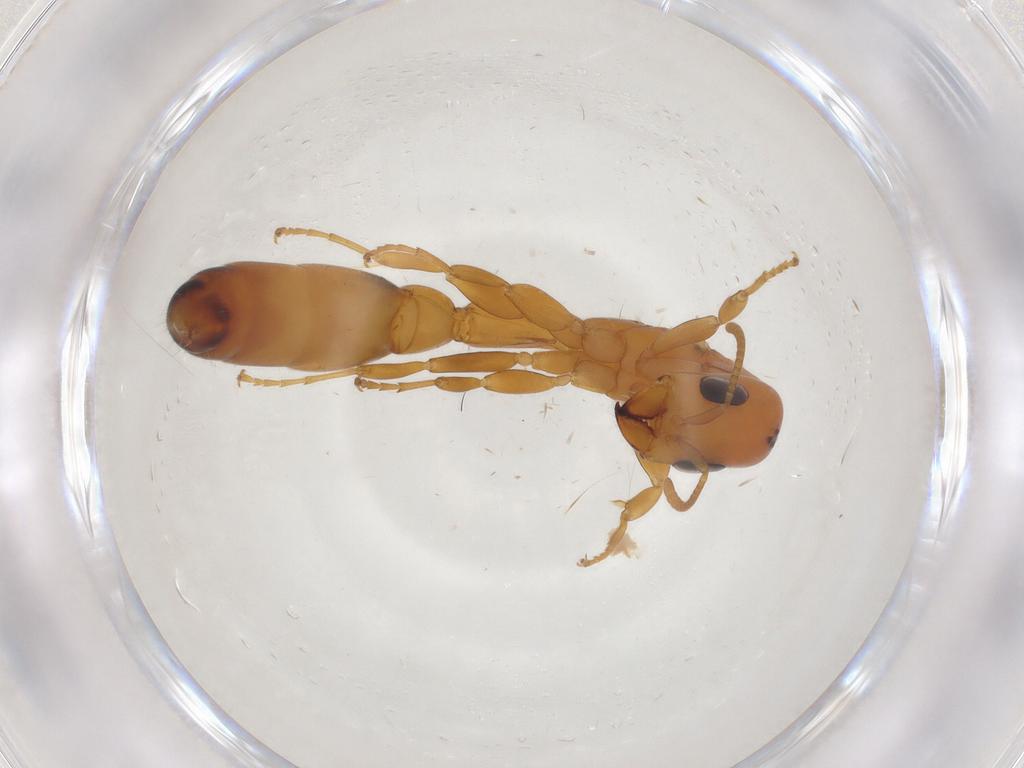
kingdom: Animalia
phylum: Arthropoda
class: Insecta
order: Hymenoptera
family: Formicidae
